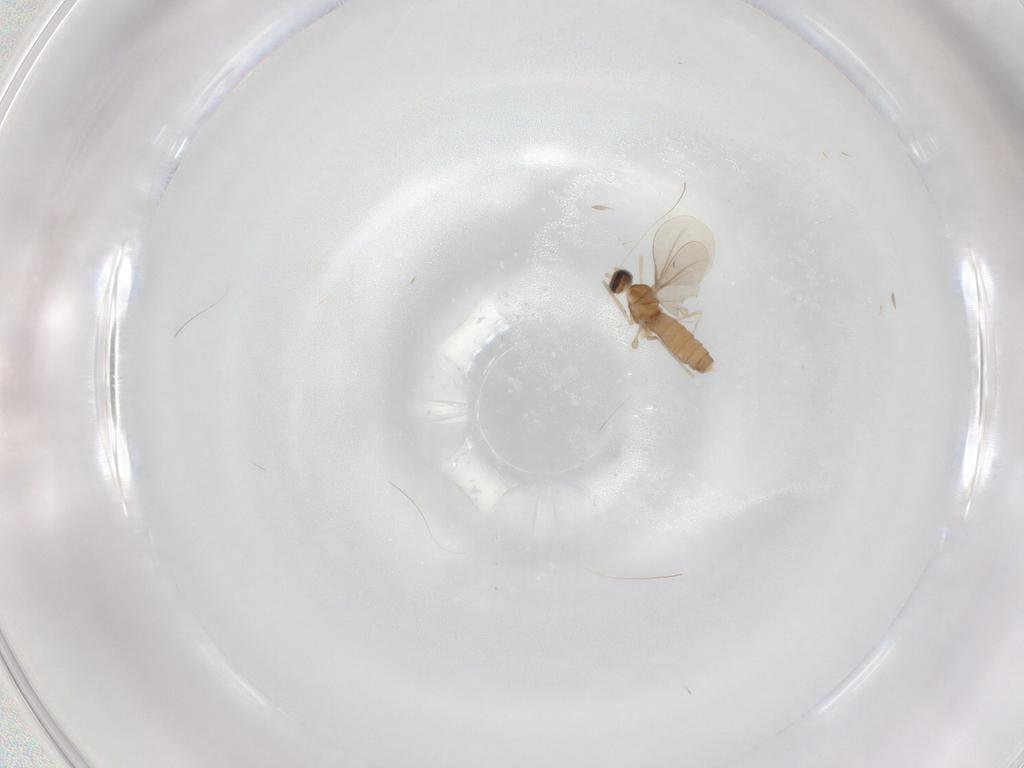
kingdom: Animalia
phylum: Arthropoda
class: Insecta
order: Diptera
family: Cecidomyiidae
